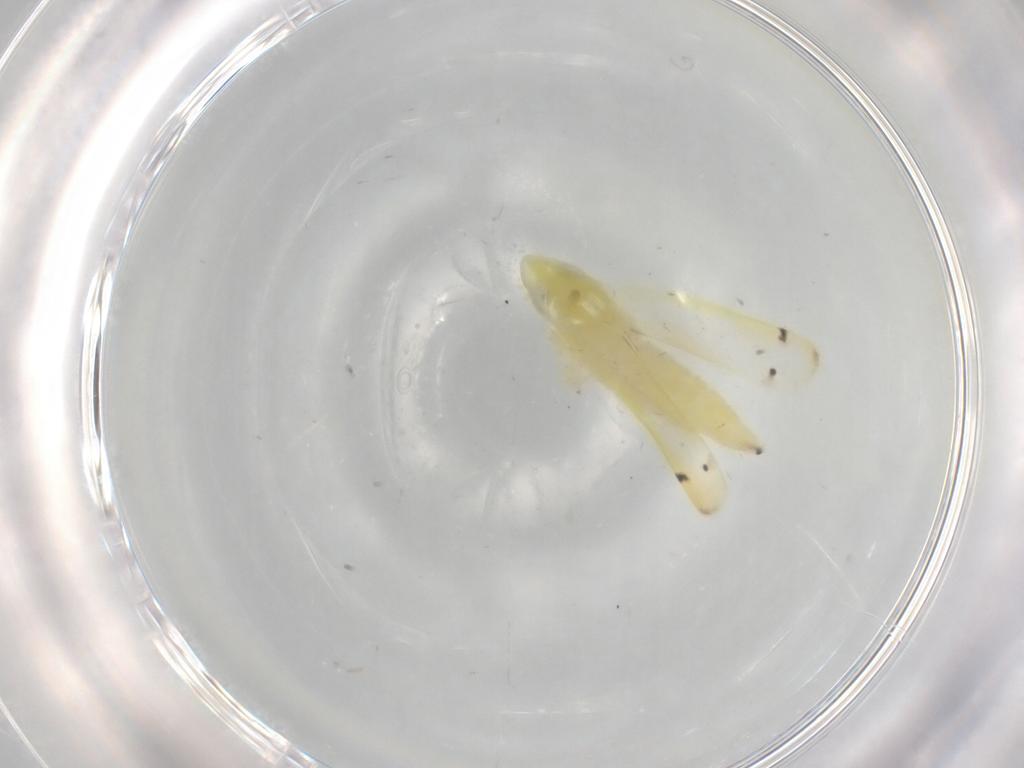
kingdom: Animalia
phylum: Arthropoda
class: Insecta
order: Hemiptera
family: Cicadellidae
